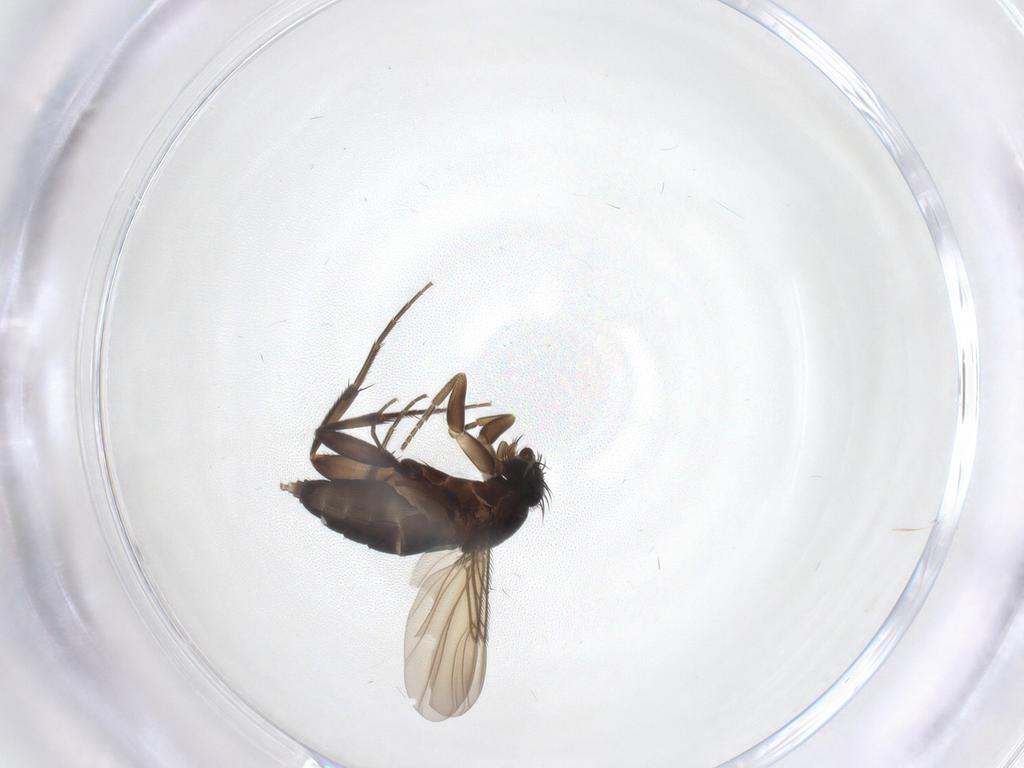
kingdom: Animalia
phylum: Arthropoda
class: Insecta
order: Diptera
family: Phoridae
